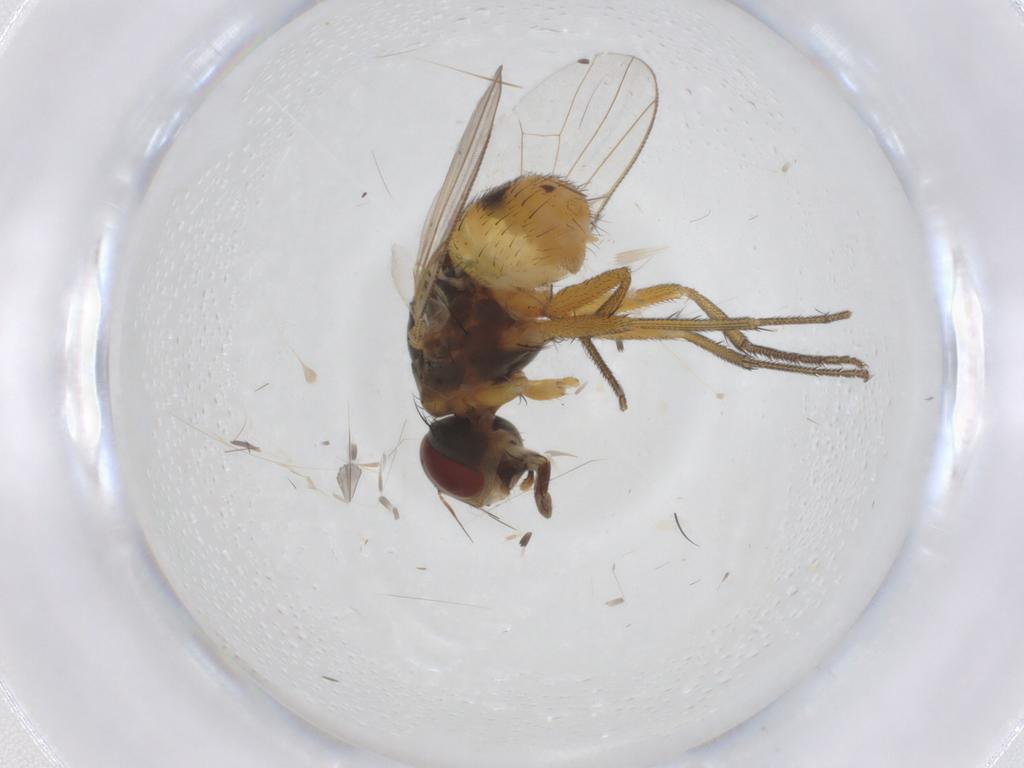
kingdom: Animalia
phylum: Arthropoda
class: Insecta
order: Diptera
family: Muscidae
